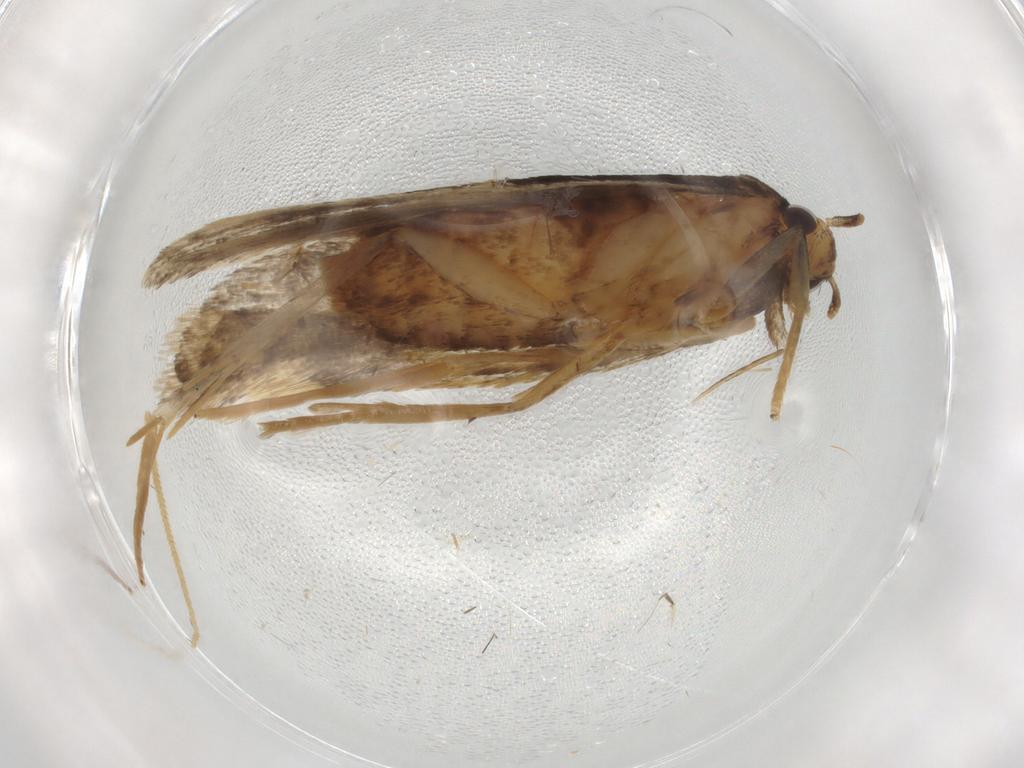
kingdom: Animalia
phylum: Arthropoda
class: Insecta
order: Lepidoptera
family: Lecithoceridae
